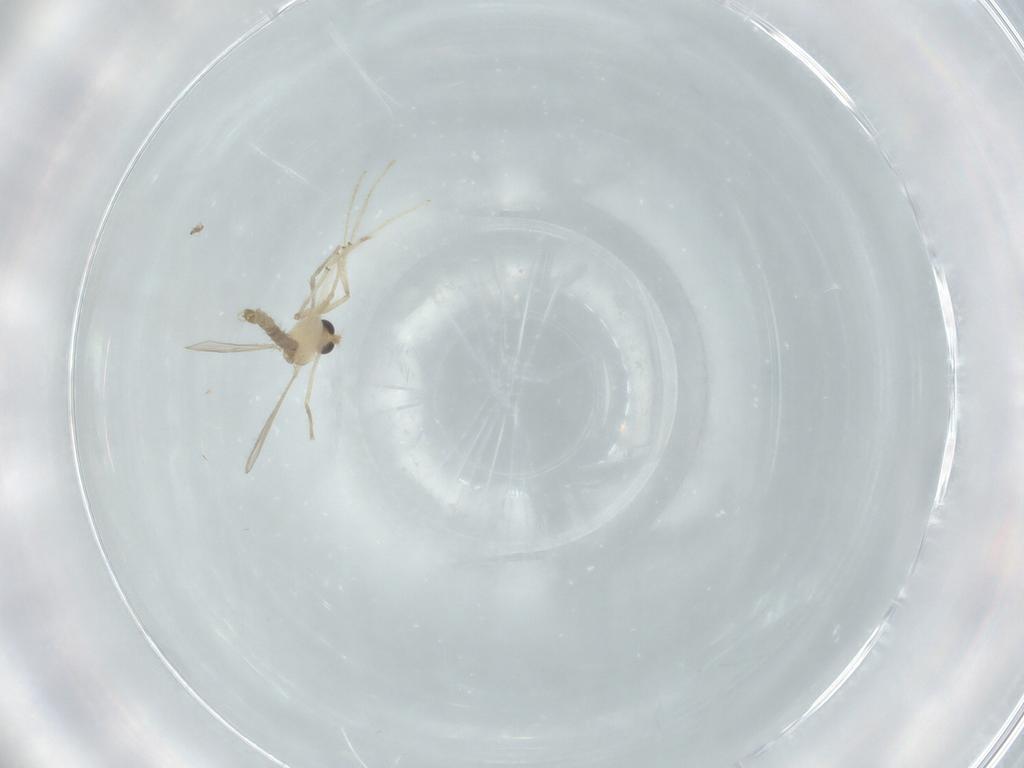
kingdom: Animalia
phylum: Arthropoda
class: Insecta
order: Diptera
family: Chironomidae
